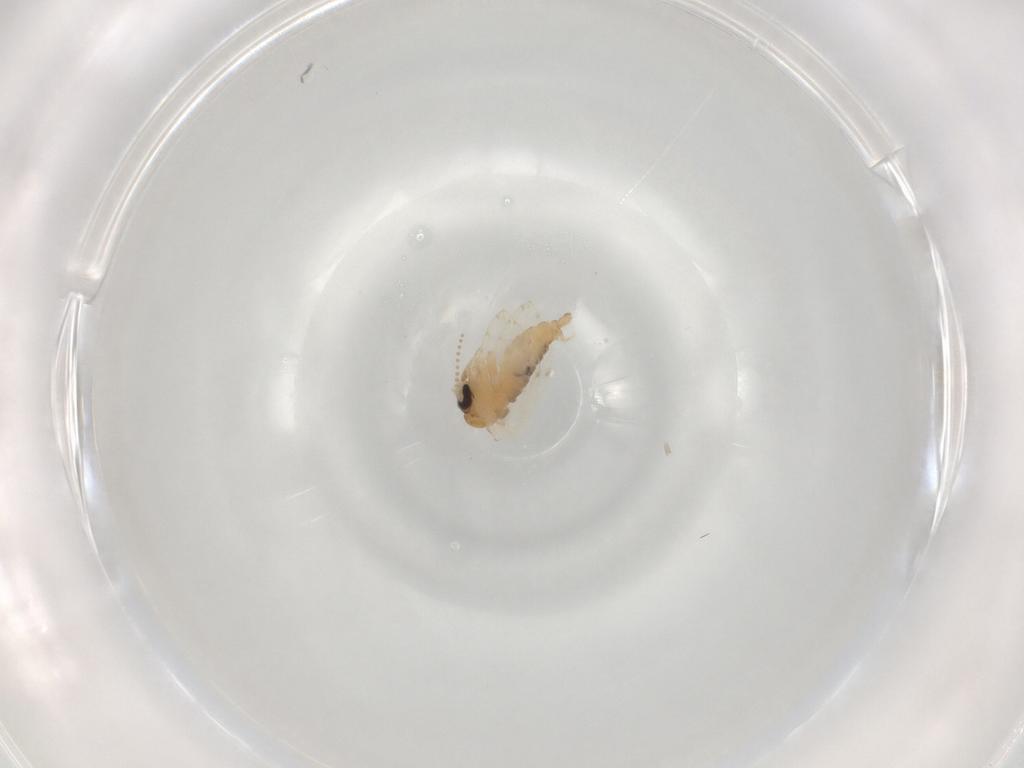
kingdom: Animalia
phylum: Arthropoda
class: Insecta
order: Diptera
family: Psychodidae
